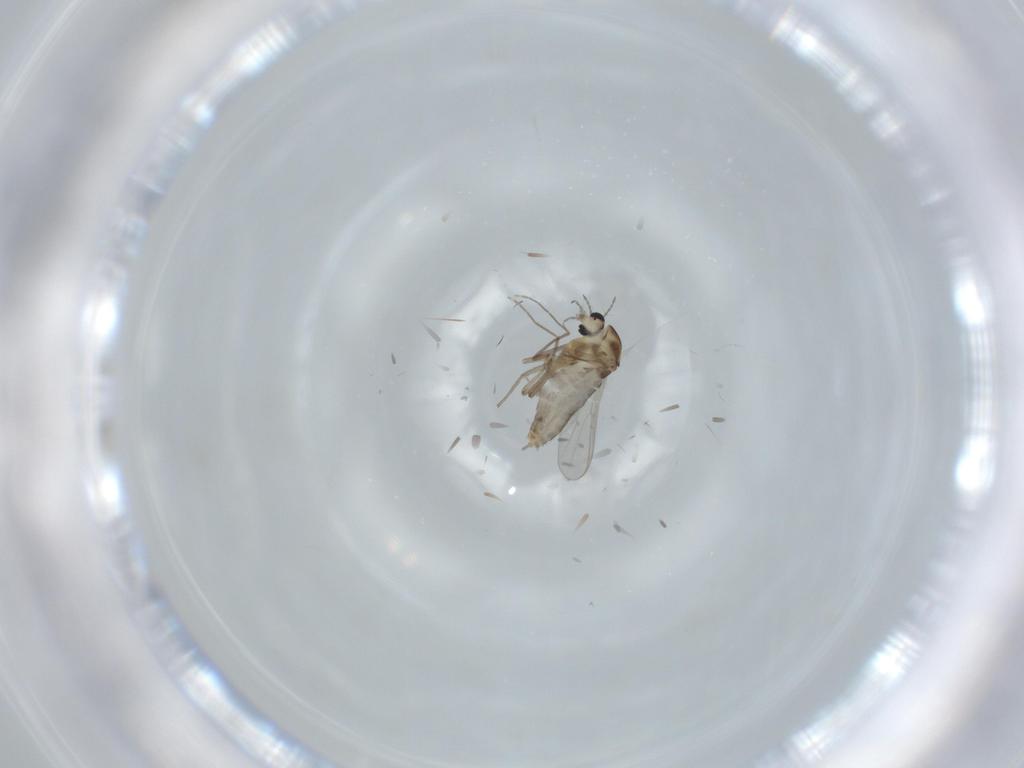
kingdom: Animalia
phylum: Arthropoda
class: Insecta
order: Diptera
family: Chironomidae
